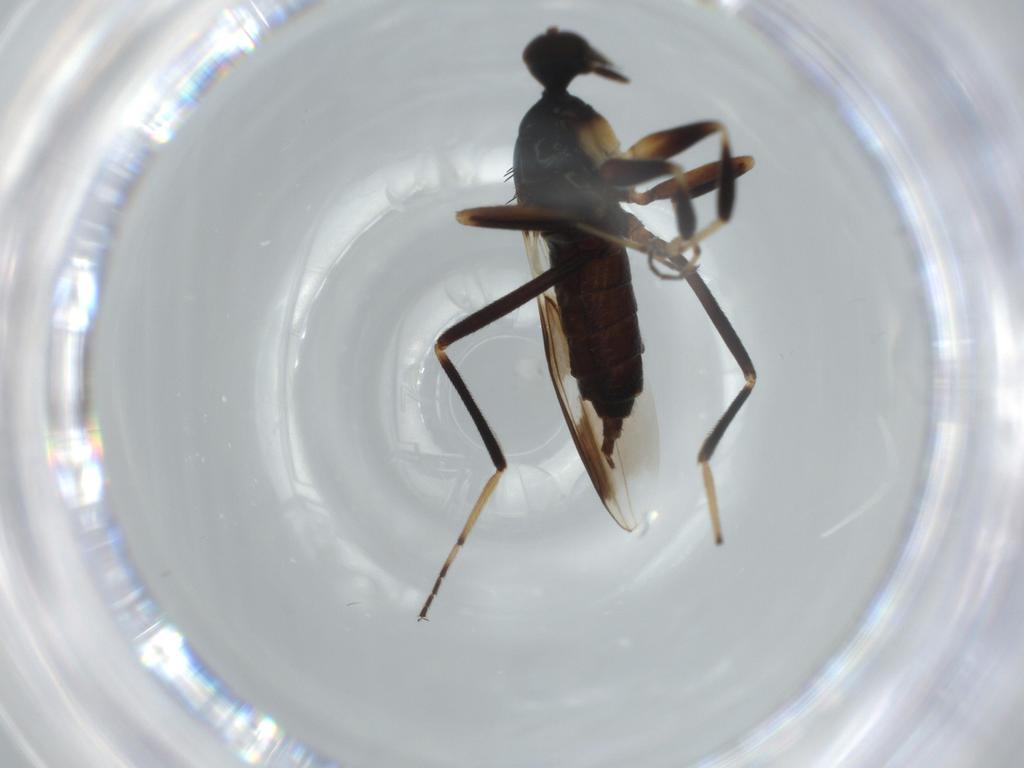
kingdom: Animalia
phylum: Arthropoda
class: Insecta
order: Diptera
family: Hybotidae
